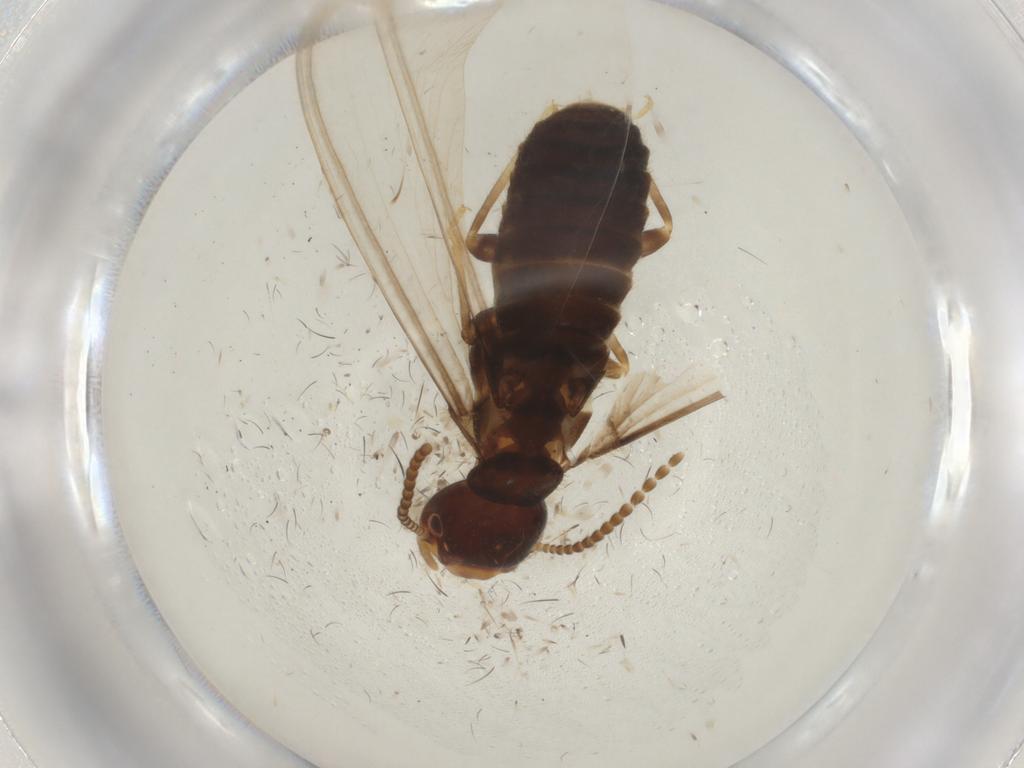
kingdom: Animalia
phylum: Arthropoda
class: Insecta
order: Blattodea
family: Rhinotermitidae
